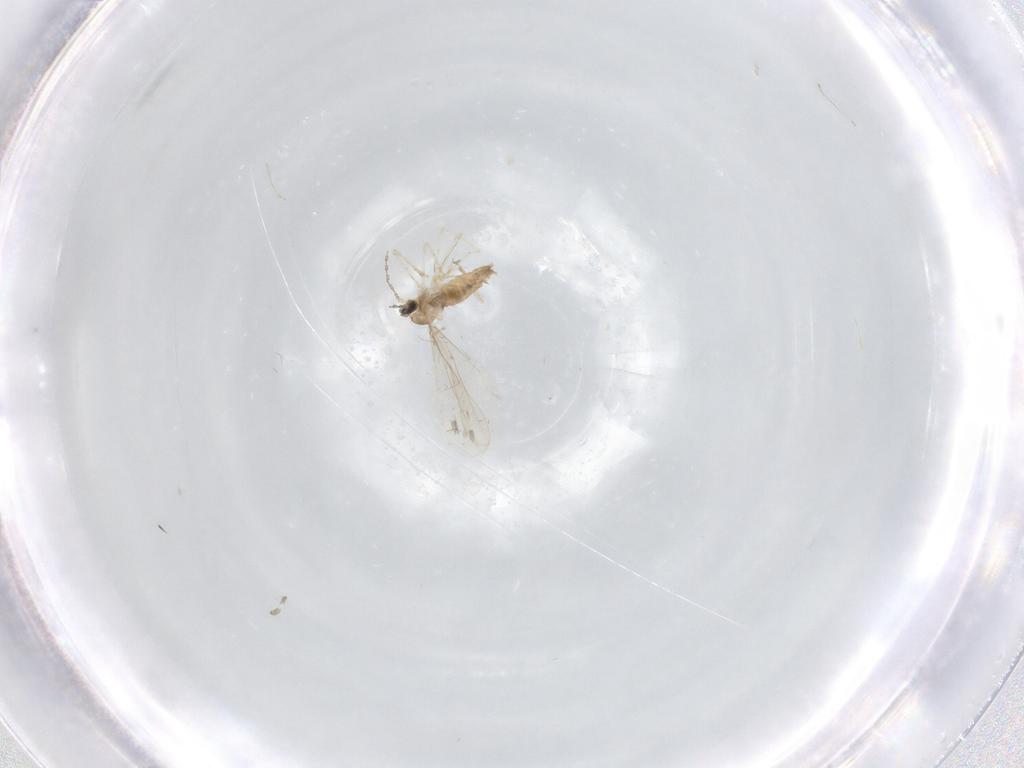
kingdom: Animalia
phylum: Arthropoda
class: Insecta
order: Diptera
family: Cecidomyiidae
